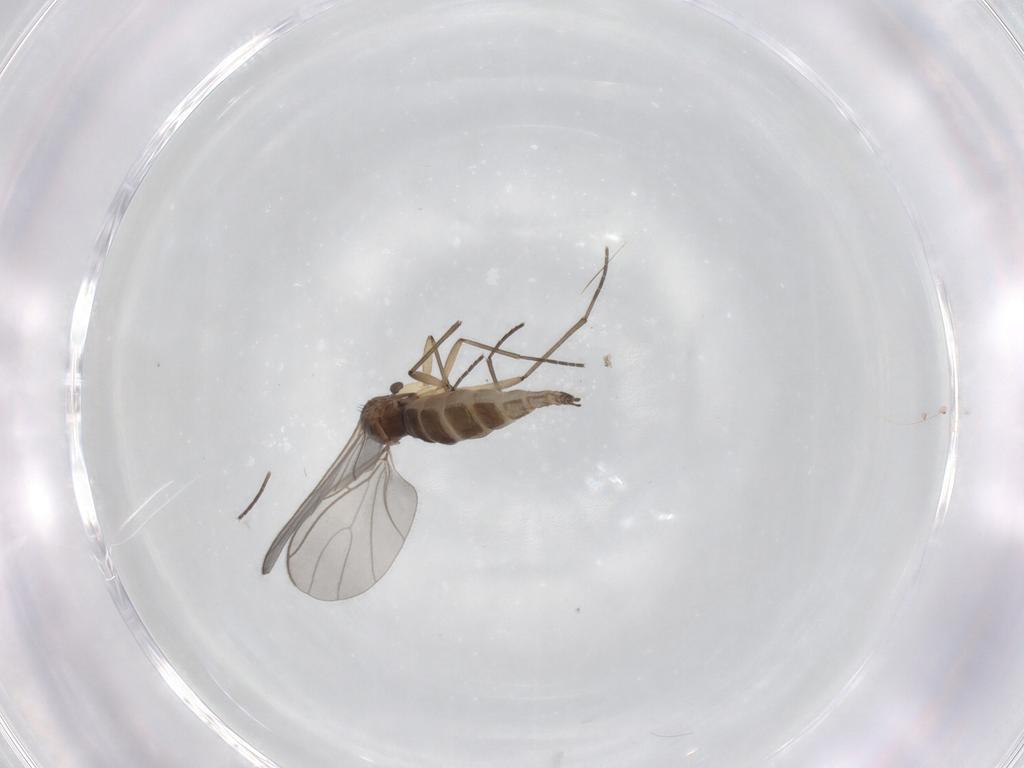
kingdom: Animalia
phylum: Arthropoda
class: Insecta
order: Diptera
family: Sciaridae
